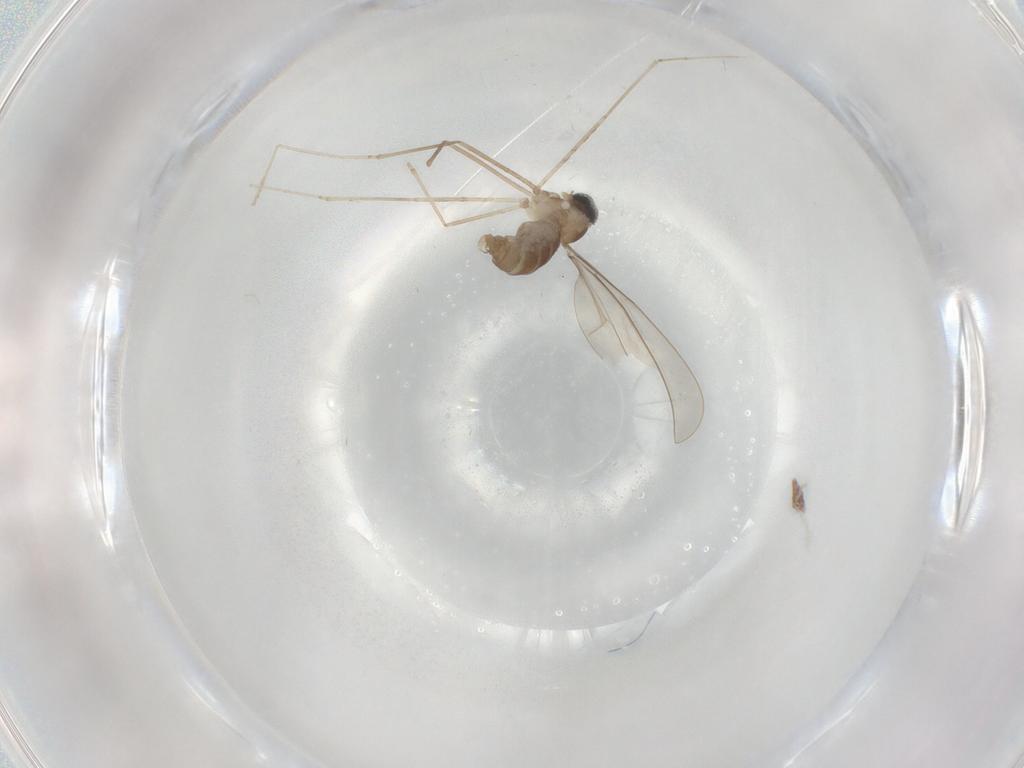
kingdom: Animalia
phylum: Arthropoda
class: Insecta
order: Diptera
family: Cecidomyiidae
